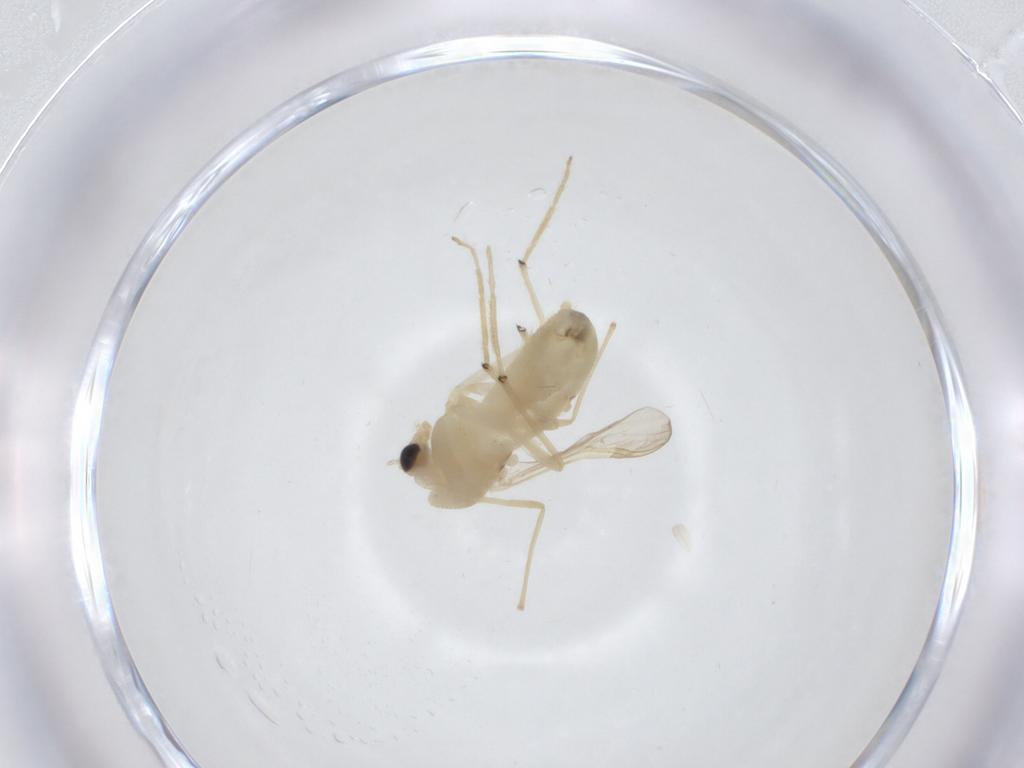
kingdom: Animalia
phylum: Arthropoda
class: Insecta
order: Diptera
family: Chironomidae
